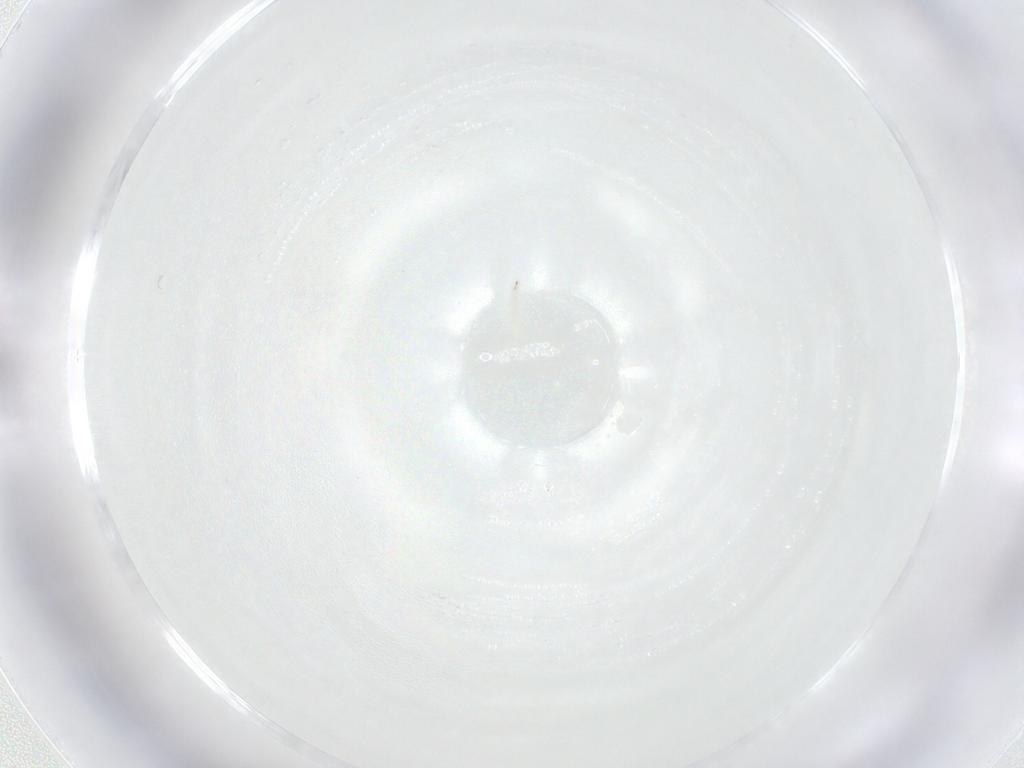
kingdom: Animalia
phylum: Arthropoda
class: Insecta
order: Diptera
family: Tachinidae
